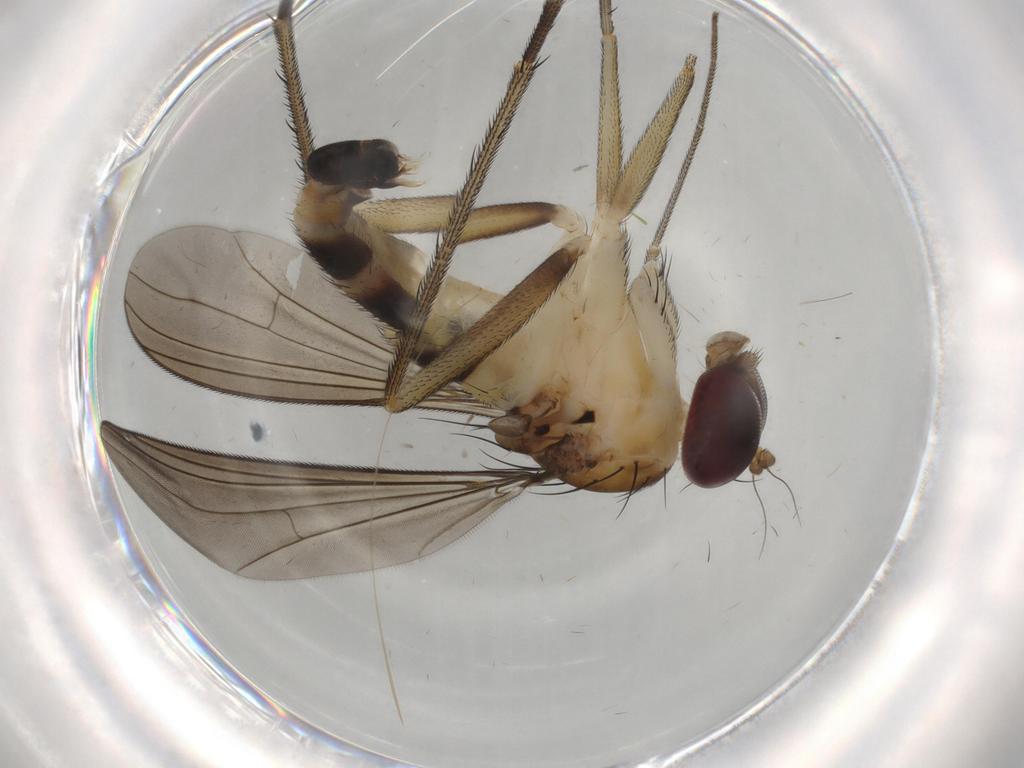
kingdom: Animalia
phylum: Arthropoda
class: Insecta
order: Diptera
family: Dolichopodidae
